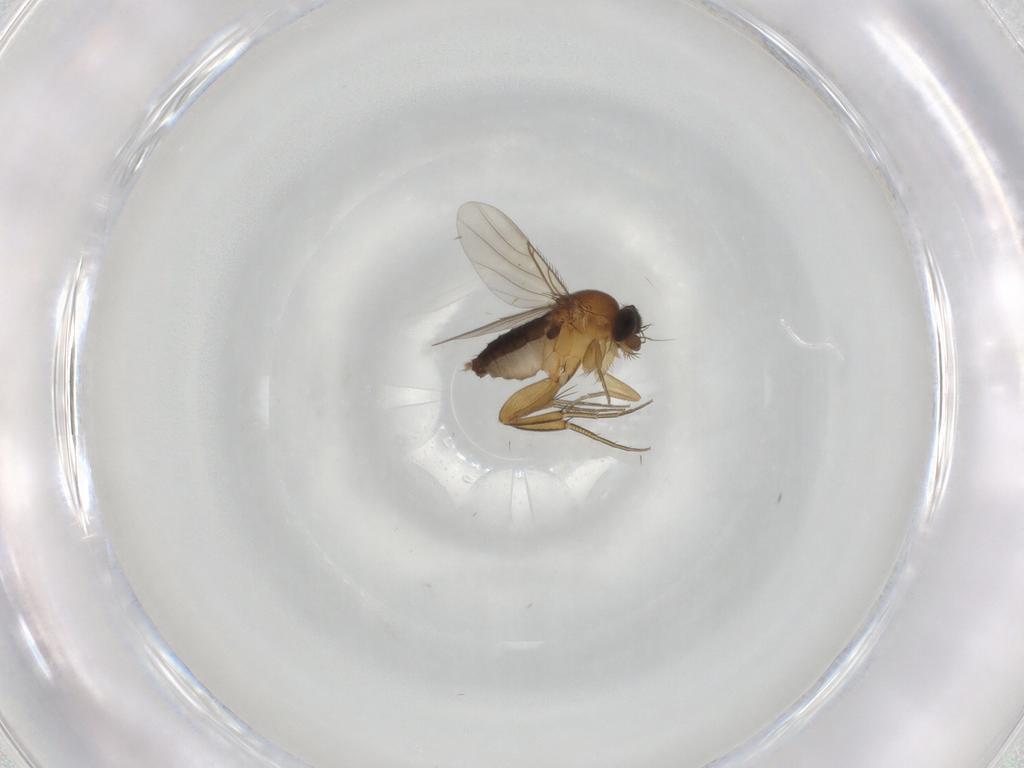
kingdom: Animalia
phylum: Arthropoda
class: Insecta
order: Diptera
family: Phoridae
